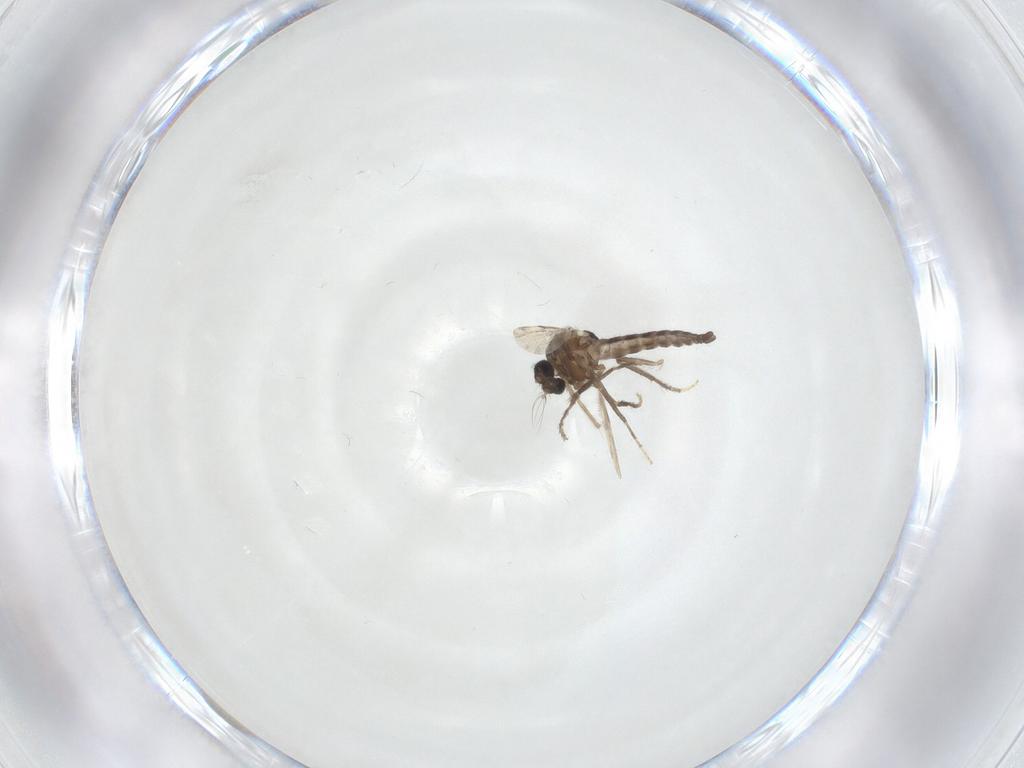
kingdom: Animalia
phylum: Arthropoda
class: Insecta
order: Diptera
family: Ceratopogonidae
